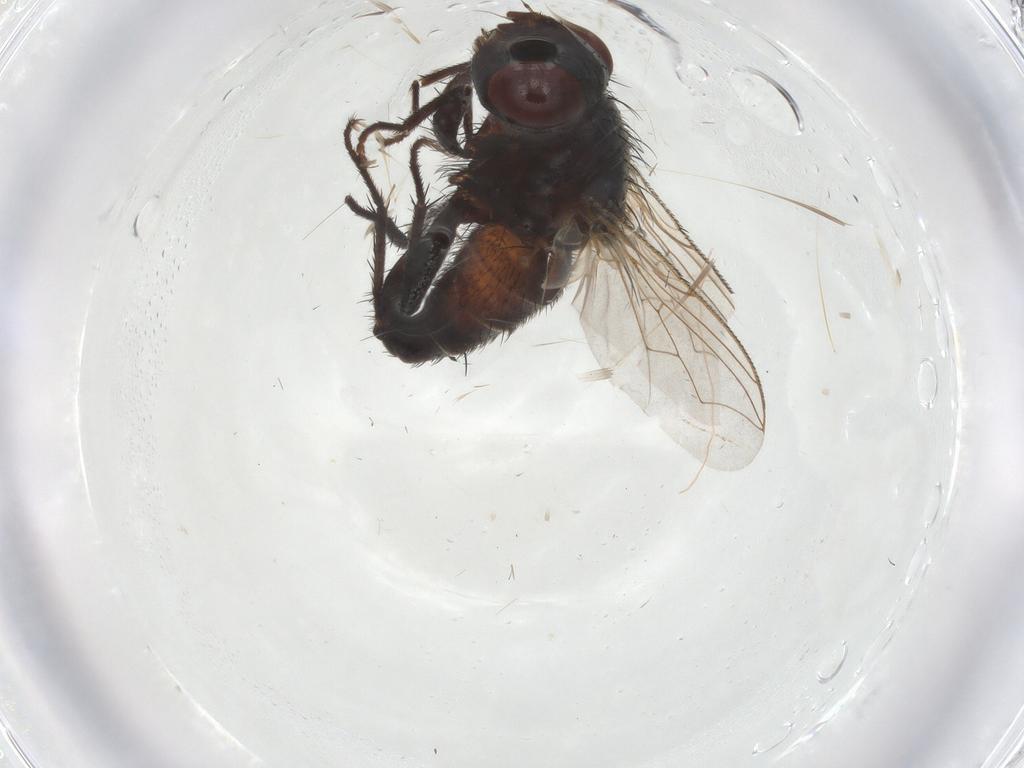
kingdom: Animalia
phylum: Arthropoda
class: Insecta
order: Diptera
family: Sarcophagidae
